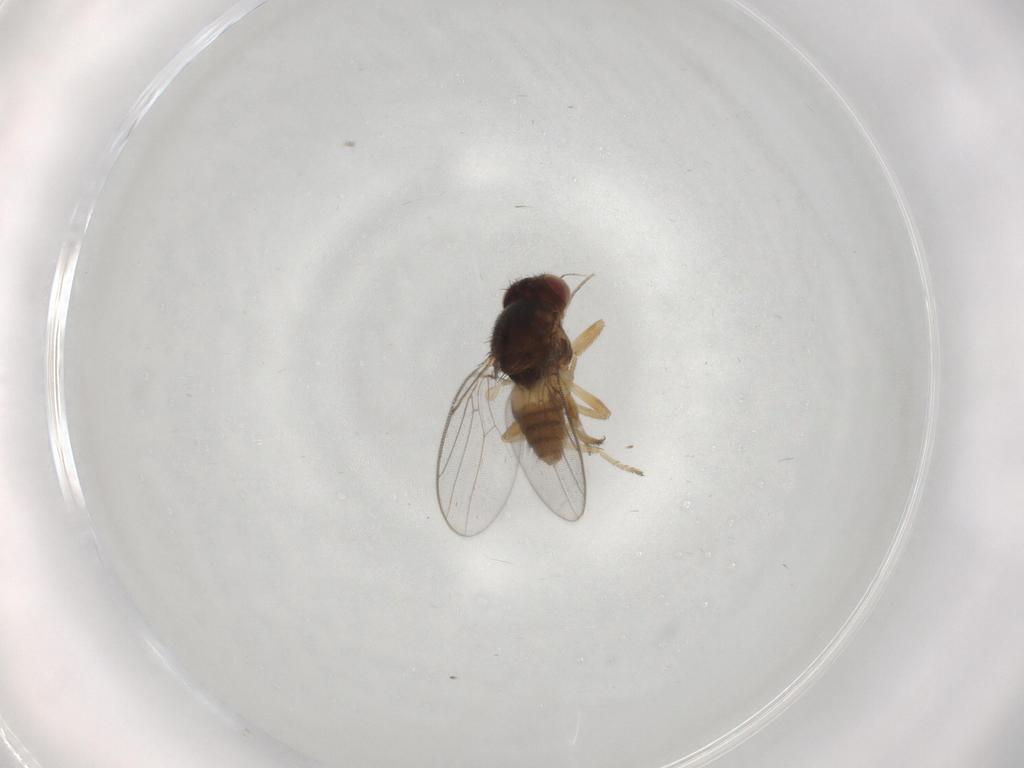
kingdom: Animalia
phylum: Arthropoda
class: Insecta
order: Diptera
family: Chloropidae
